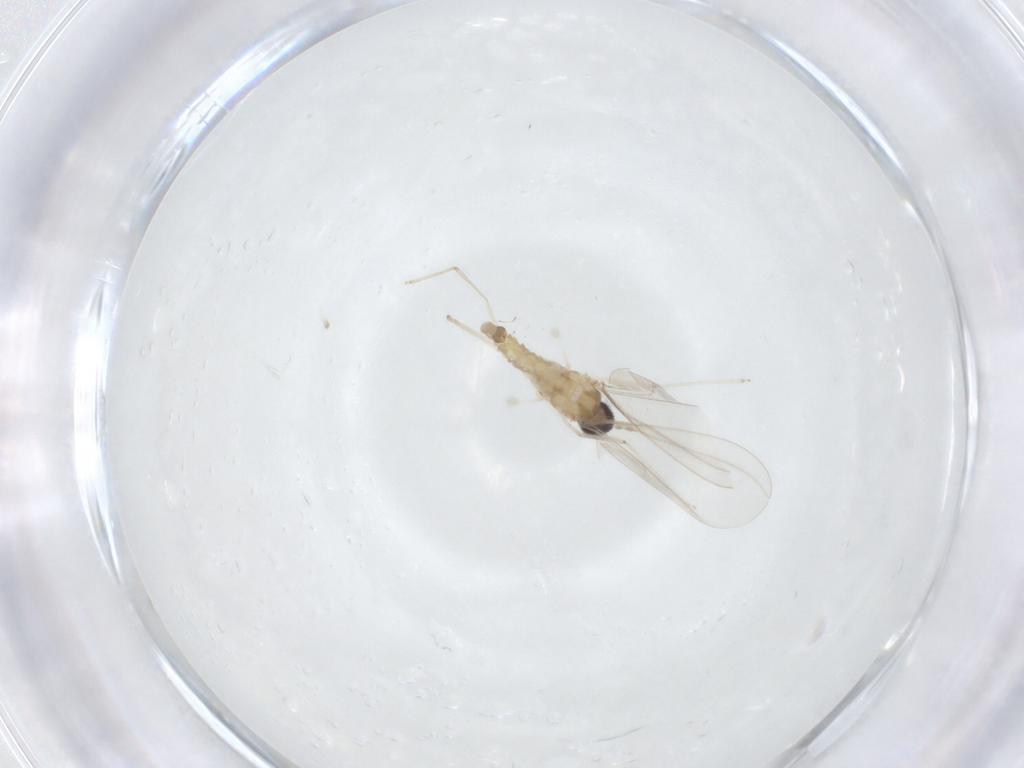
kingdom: Animalia
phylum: Arthropoda
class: Insecta
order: Diptera
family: Cecidomyiidae
